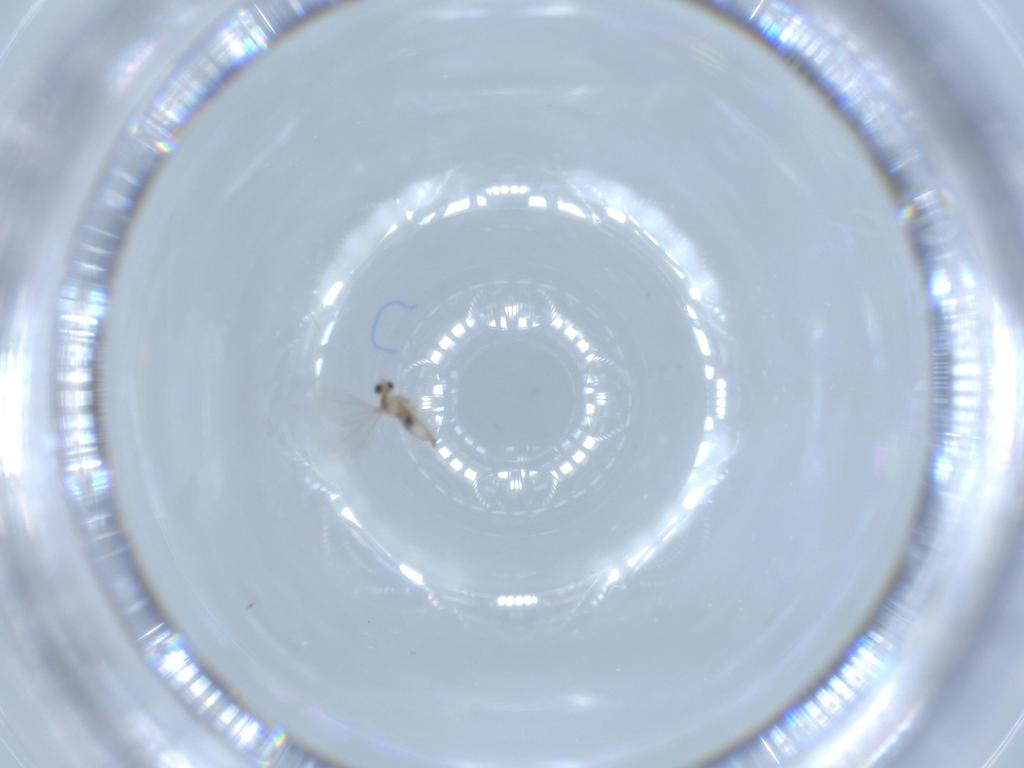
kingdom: Animalia
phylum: Arthropoda
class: Insecta
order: Diptera
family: Cecidomyiidae
